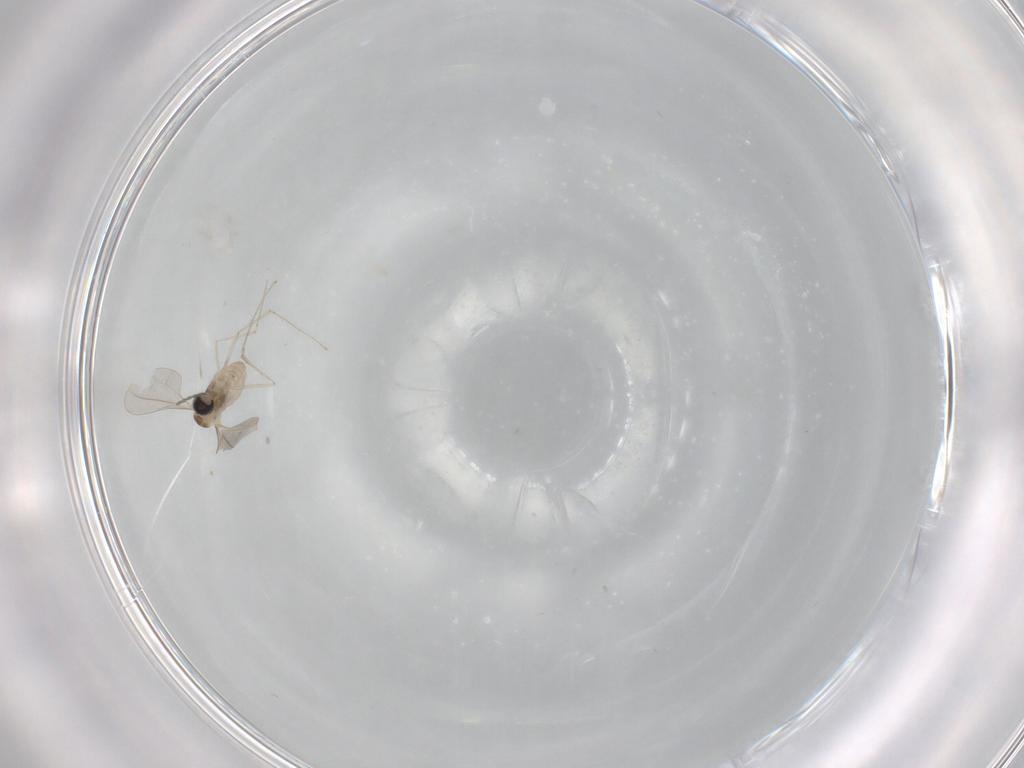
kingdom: Animalia
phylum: Arthropoda
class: Insecta
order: Diptera
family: Cecidomyiidae
